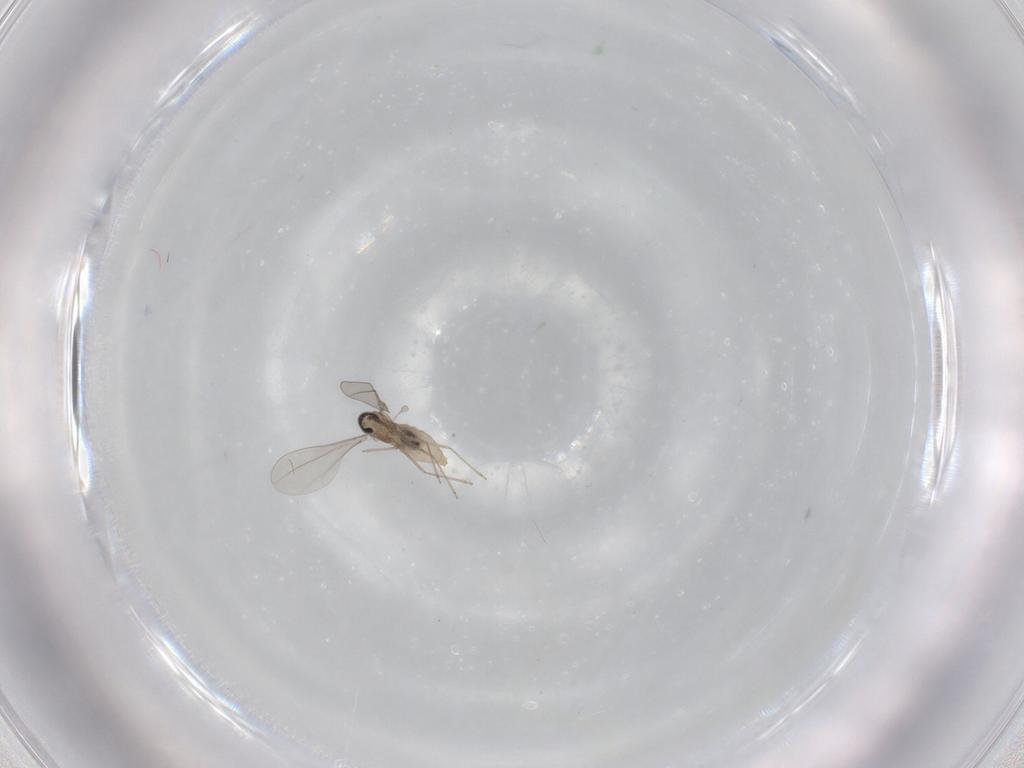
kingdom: Animalia
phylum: Arthropoda
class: Insecta
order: Diptera
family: Cecidomyiidae
